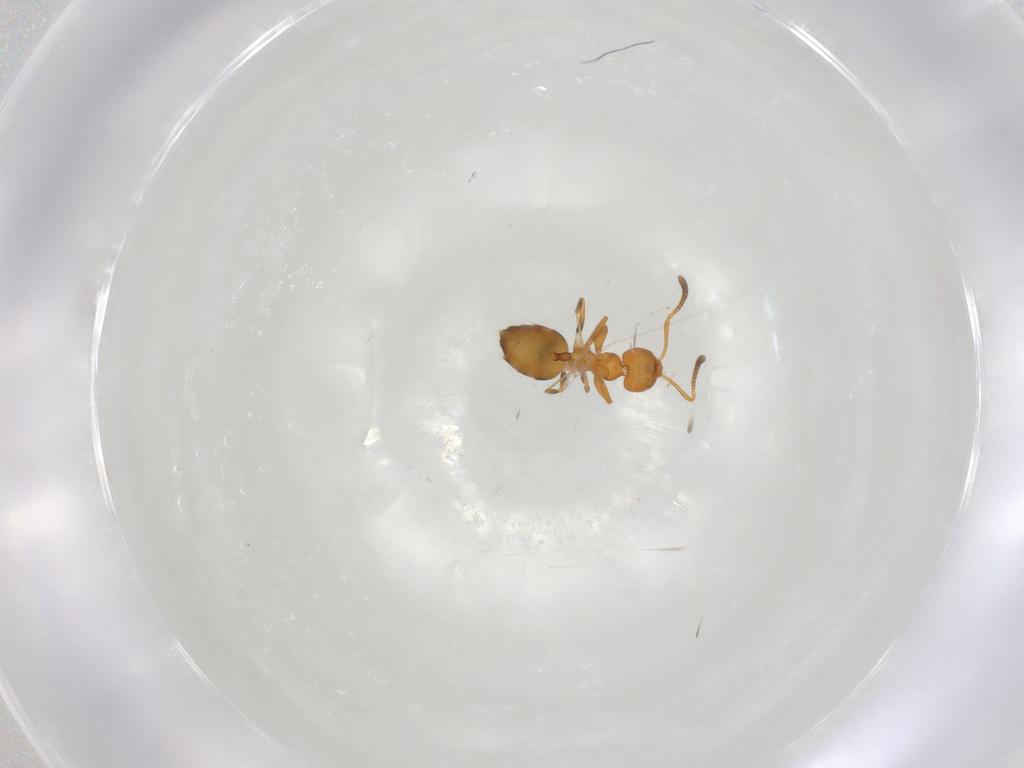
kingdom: Animalia
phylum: Arthropoda
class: Insecta
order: Hymenoptera
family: Formicidae
